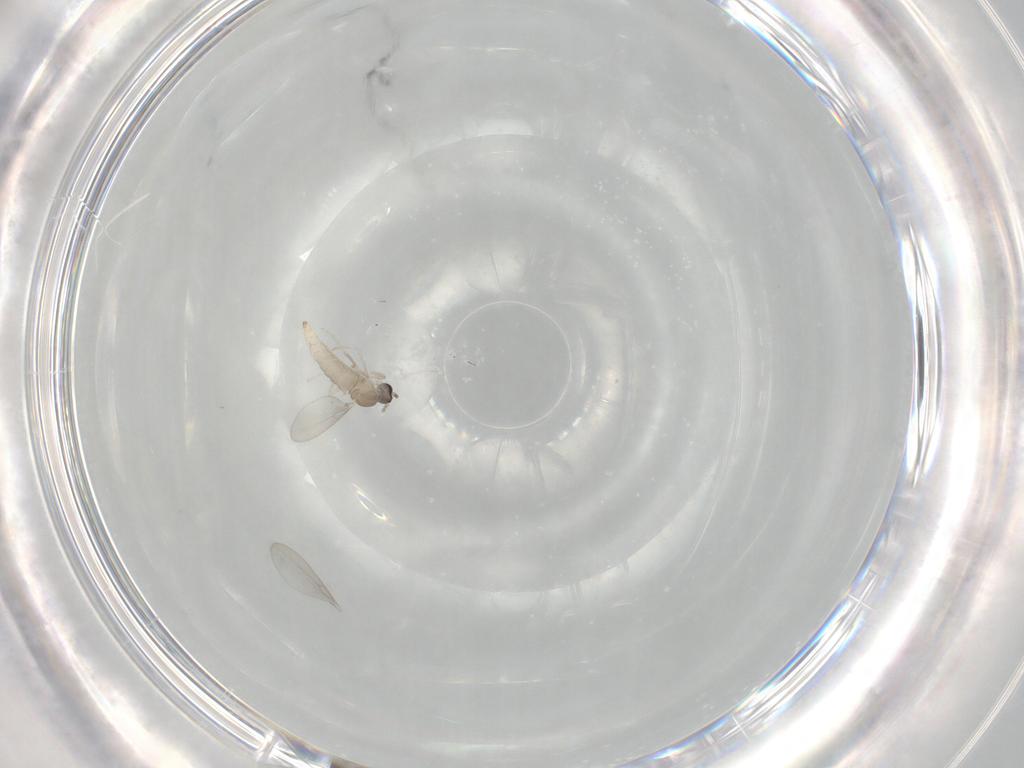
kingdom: Animalia
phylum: Arthropoda
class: Insecta
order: Diptera
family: Cecidomyiidae
